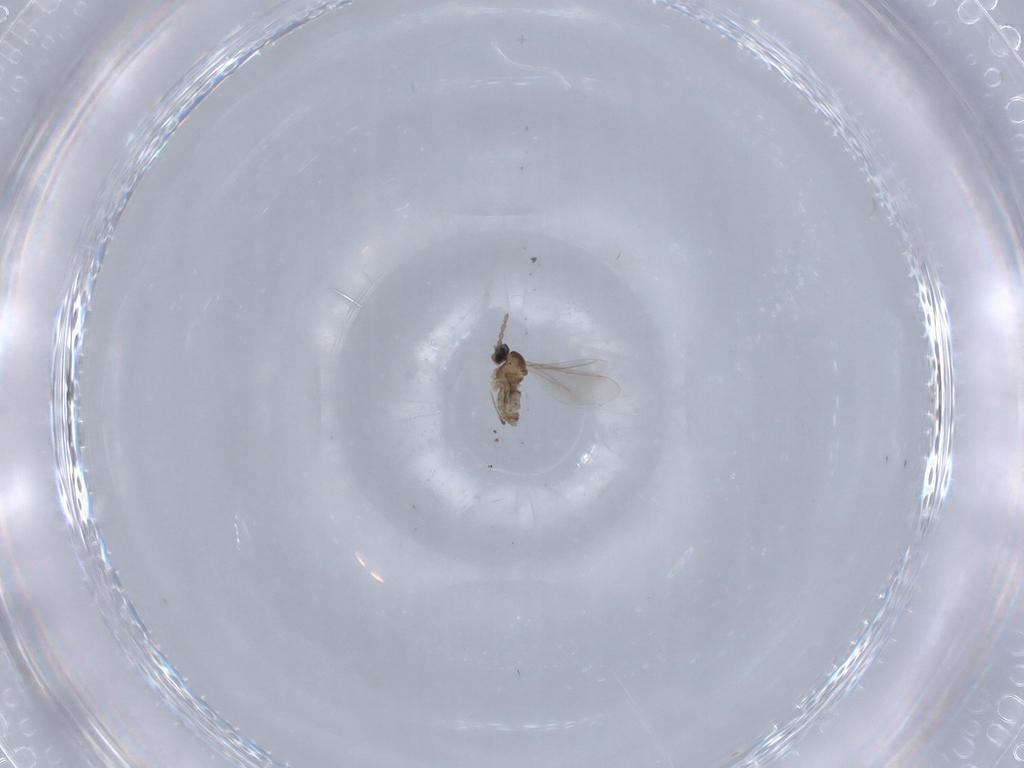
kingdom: Animalia
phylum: Arthropoda
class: Insecta
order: Diptera
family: Cecidomyiidae
